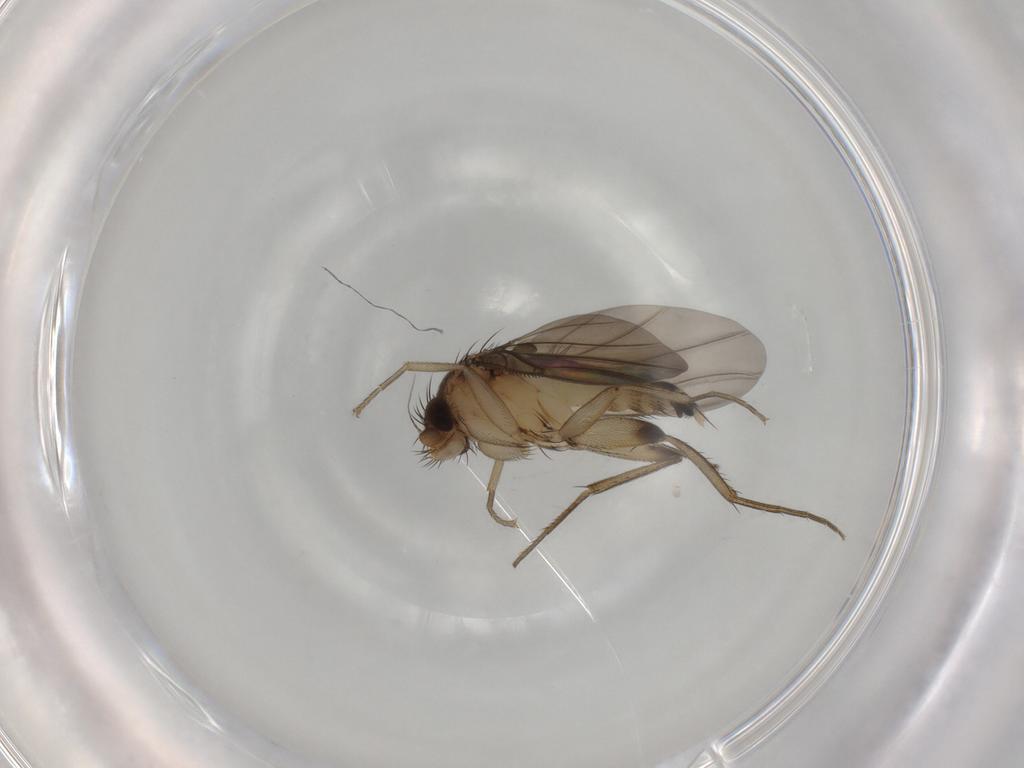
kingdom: Animalia
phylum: Arthropoda
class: Insecta
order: Diptera
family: Phoridae
